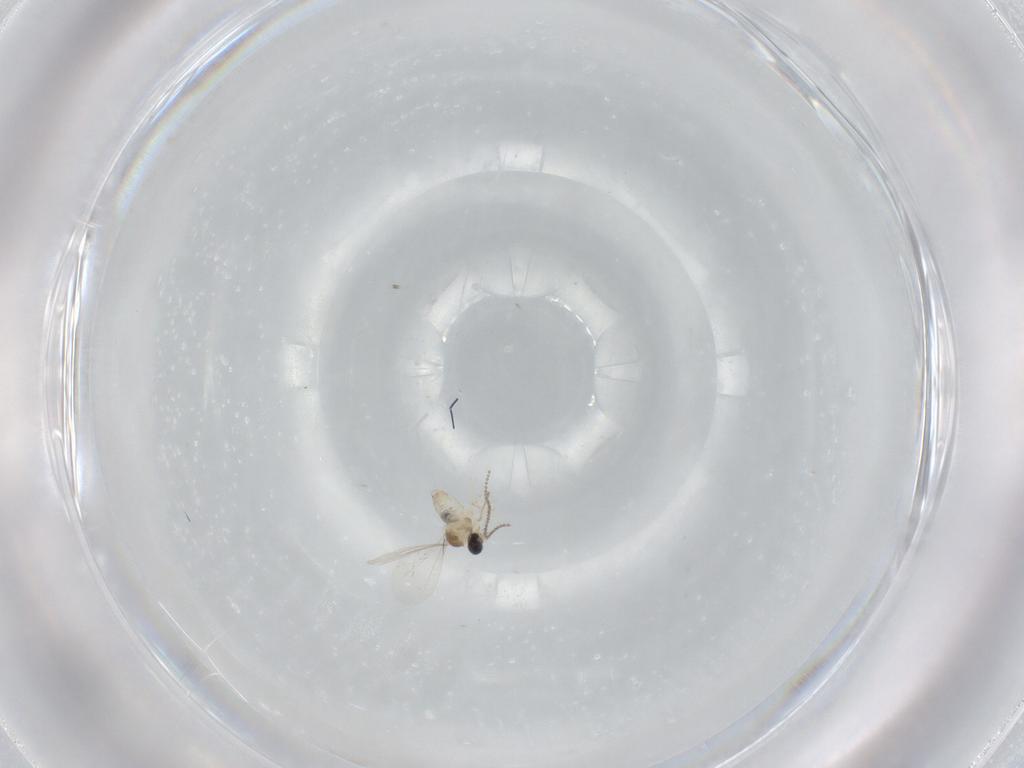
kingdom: Animalia
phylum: Arthropoda
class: Insecta
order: Diptera
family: Cecidomyiidae
